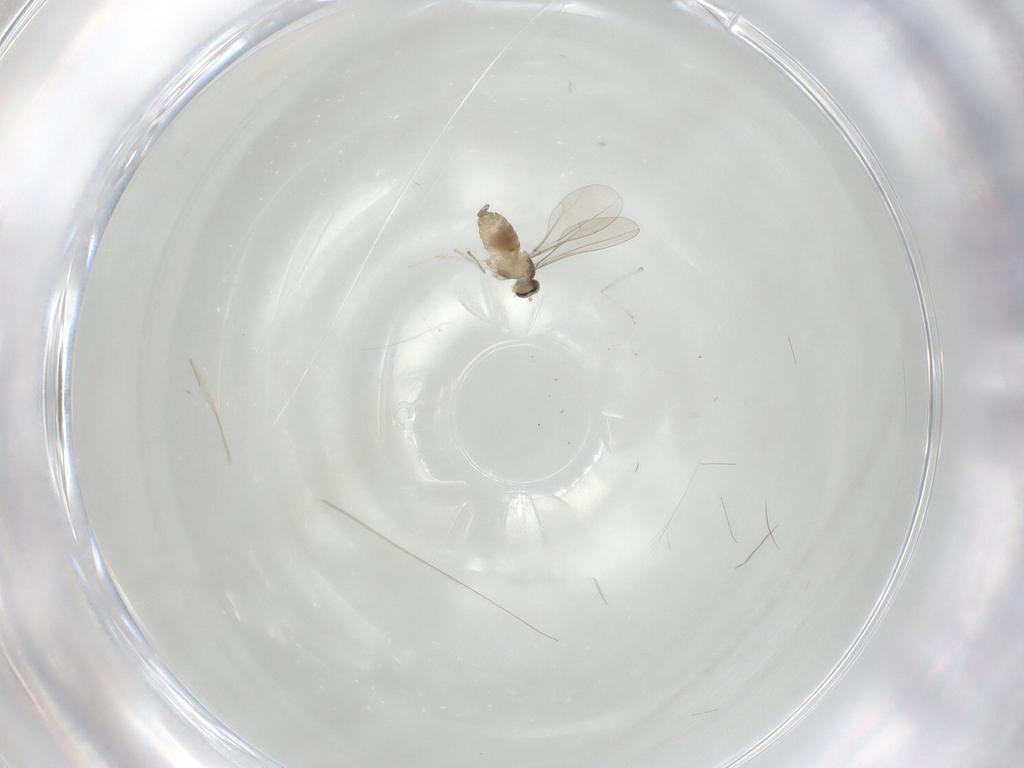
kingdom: Animalia
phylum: Arthropoda
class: Insecta
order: Diptera
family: Cecidomyiidae
